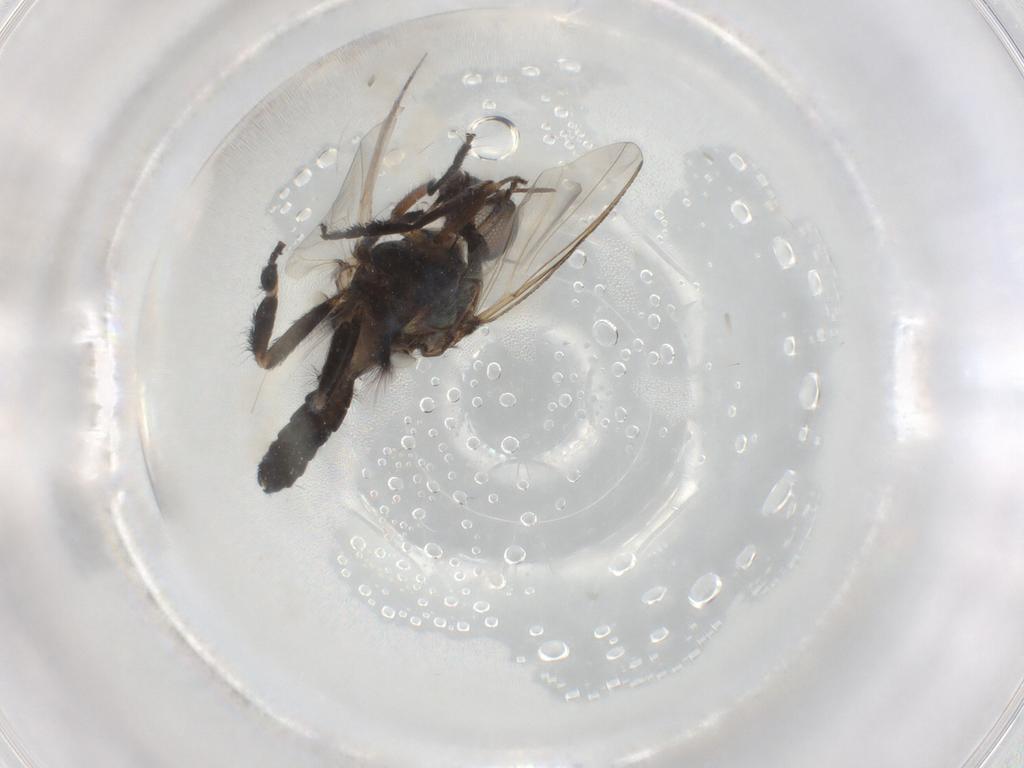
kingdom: Animalia
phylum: Arthropoda
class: Insecta
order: Diptera
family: Simuliidae
